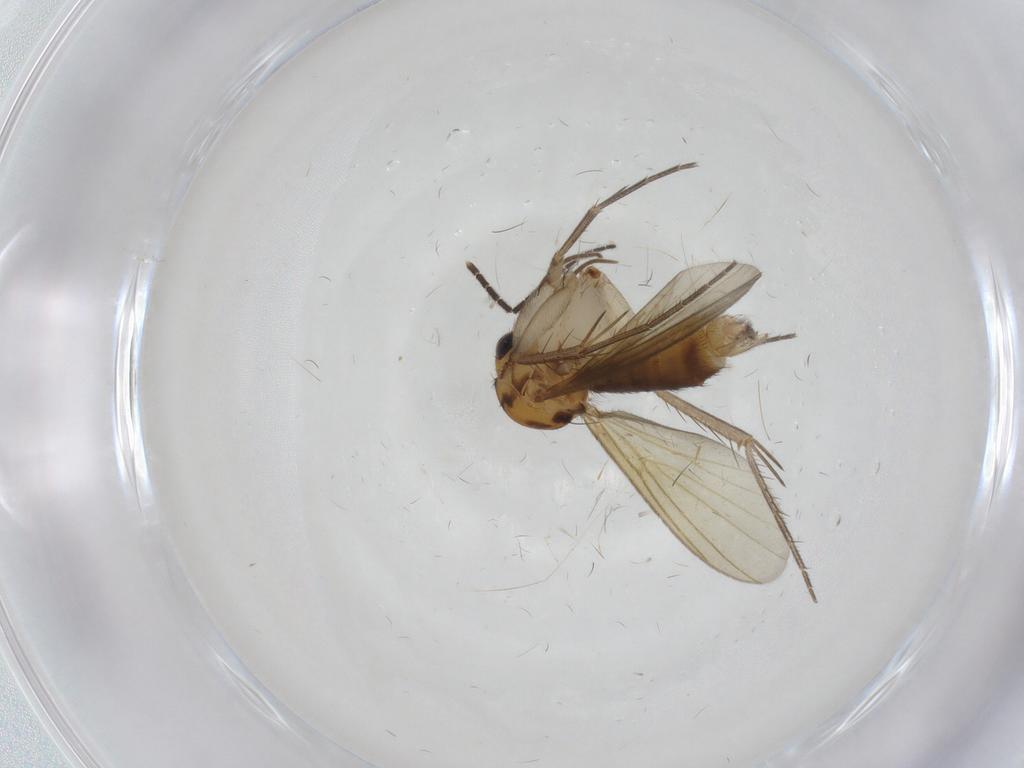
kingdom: Animalia
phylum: Arthropoda
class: Insecta
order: Diptera
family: Mycetophilidae
